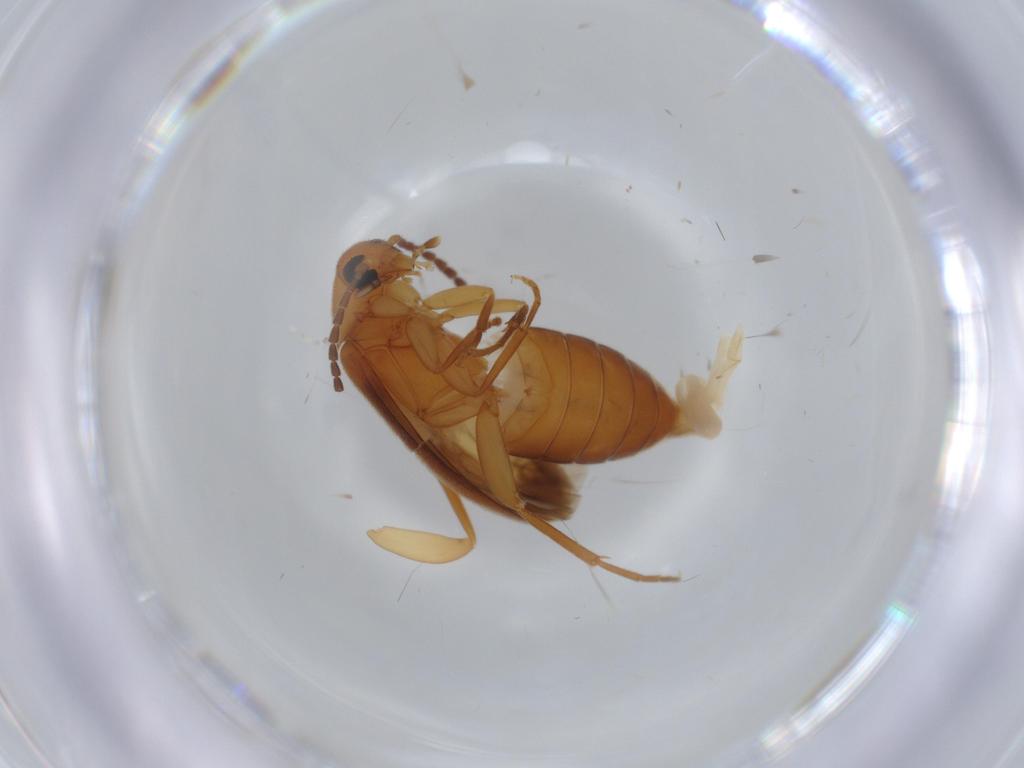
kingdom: Animalia
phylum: Arthropoda
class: Insecta
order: Coleoptera
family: Scraptiidae
